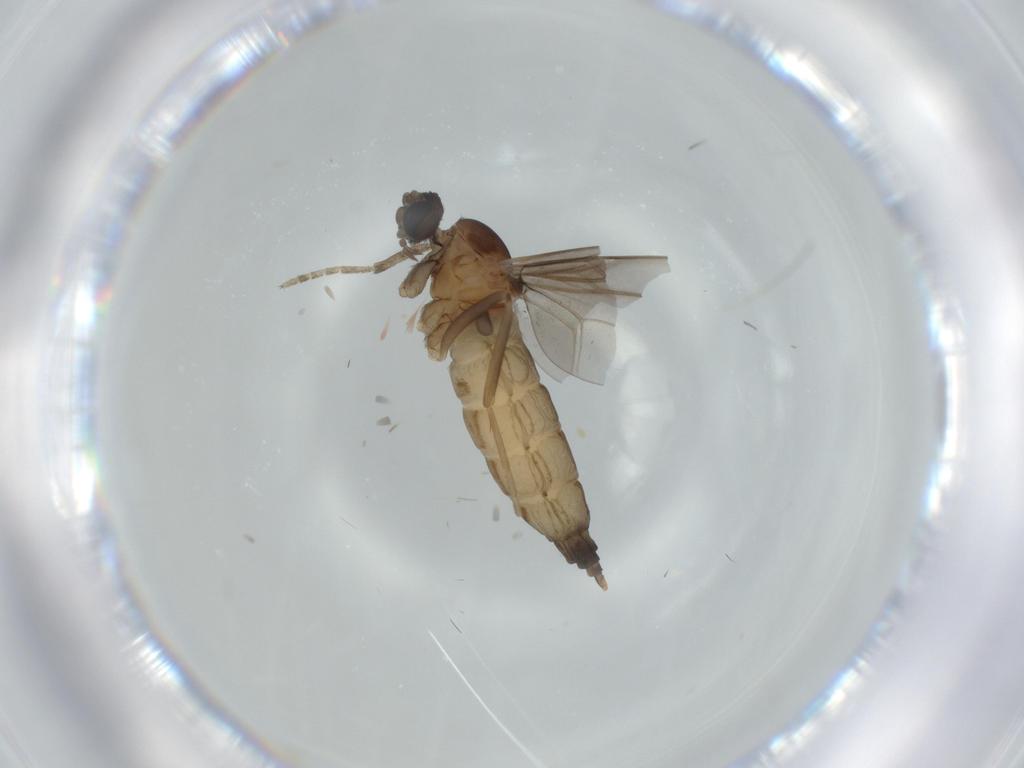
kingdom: Animalia
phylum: Arthropoda
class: Insecta
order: Diptera
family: Cecidomyiidae
